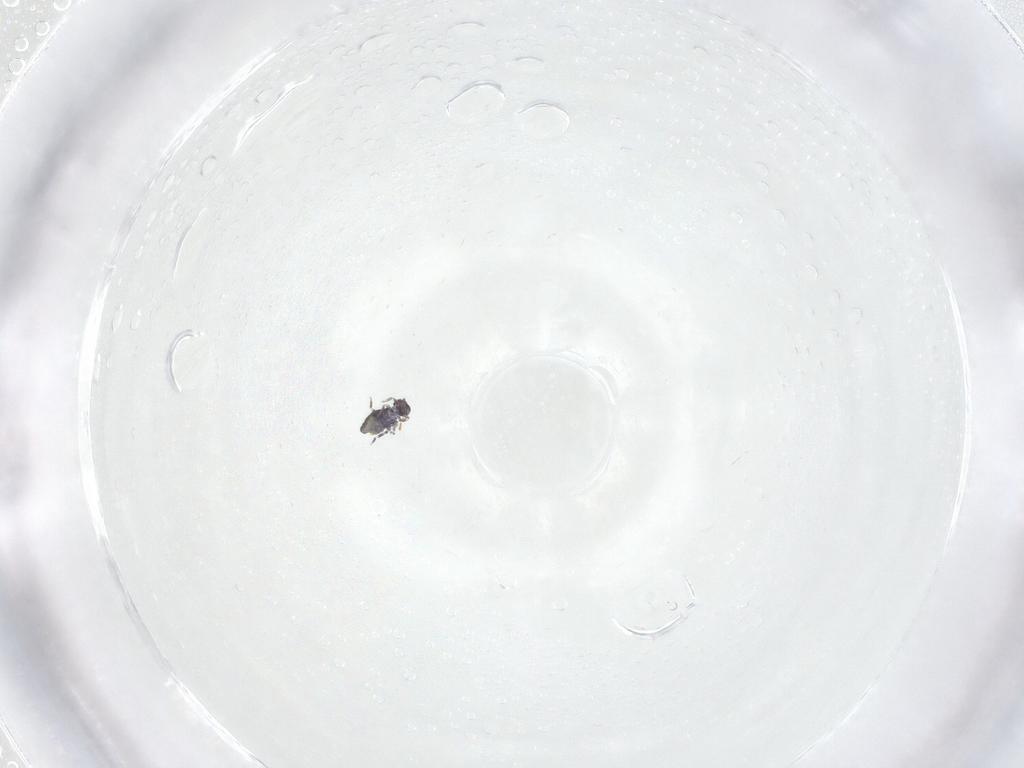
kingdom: Animalia
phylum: Arthropoda
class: Collembola
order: Symphypleona
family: Katiannidae
